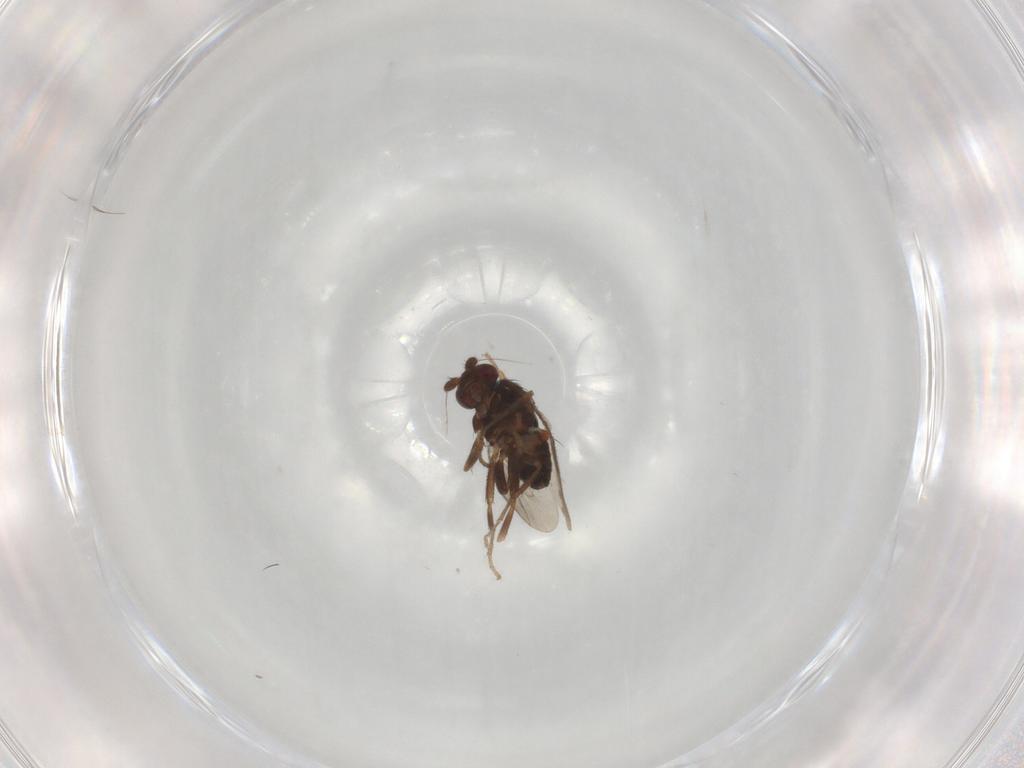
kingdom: Animalia
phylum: Arthropoda
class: Insecta
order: Diptera
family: Sphaeroceridae
